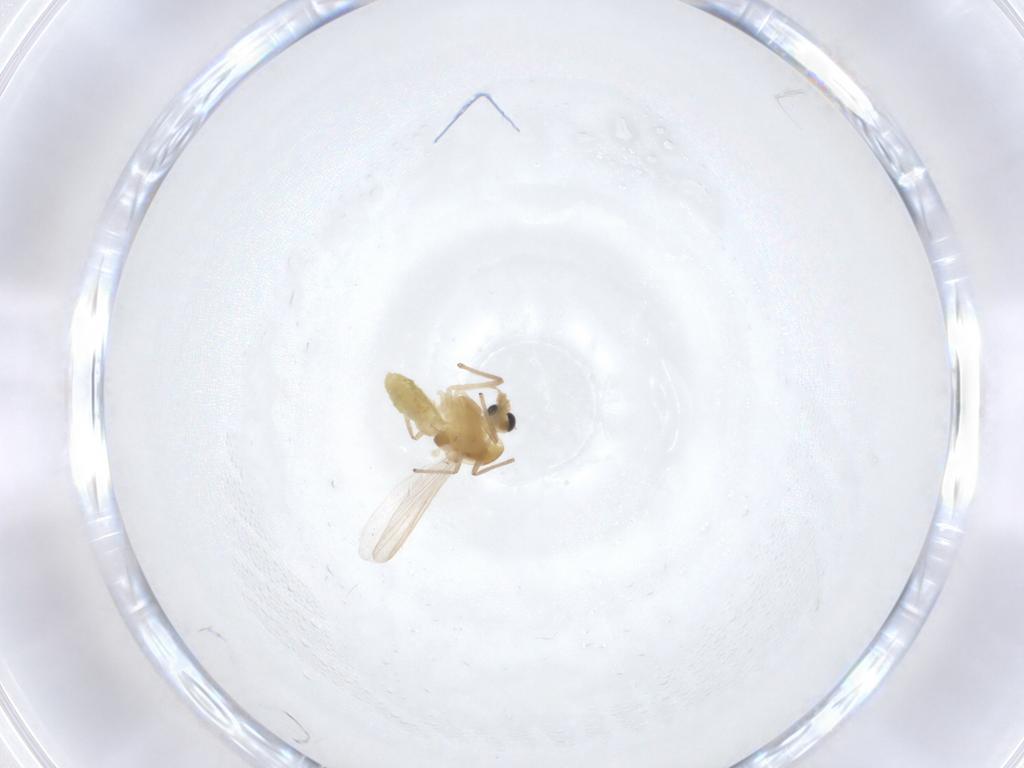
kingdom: Animalia
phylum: Arthropoda
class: Insecta
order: Diptera
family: Chironomidae
